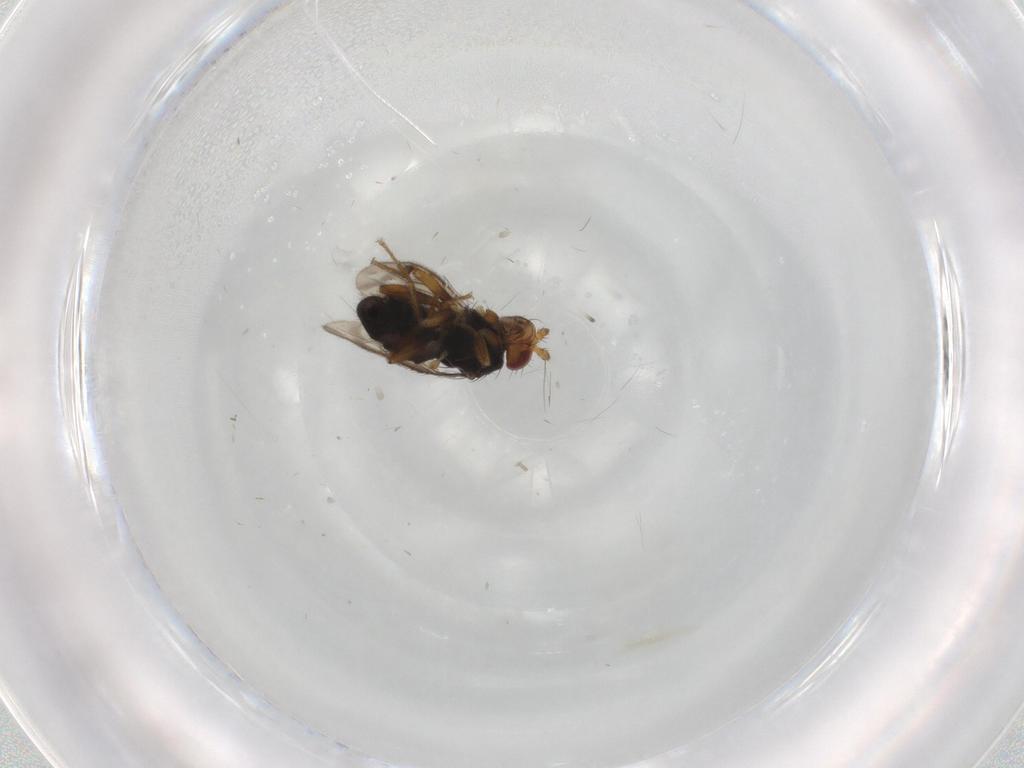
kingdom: Animalia
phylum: Arthropoda
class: Insecta
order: Diptera
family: Sphaeroceridae
